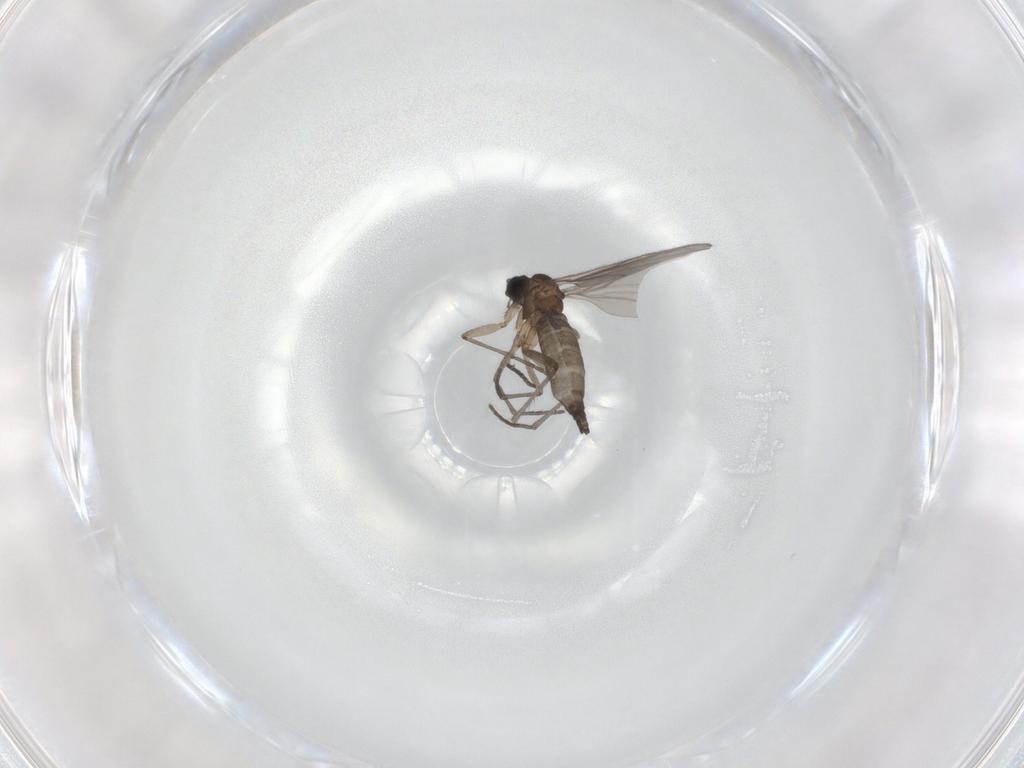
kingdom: Animalia
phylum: Arthropoda
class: Insecta
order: Diptera
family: Sciaridae
